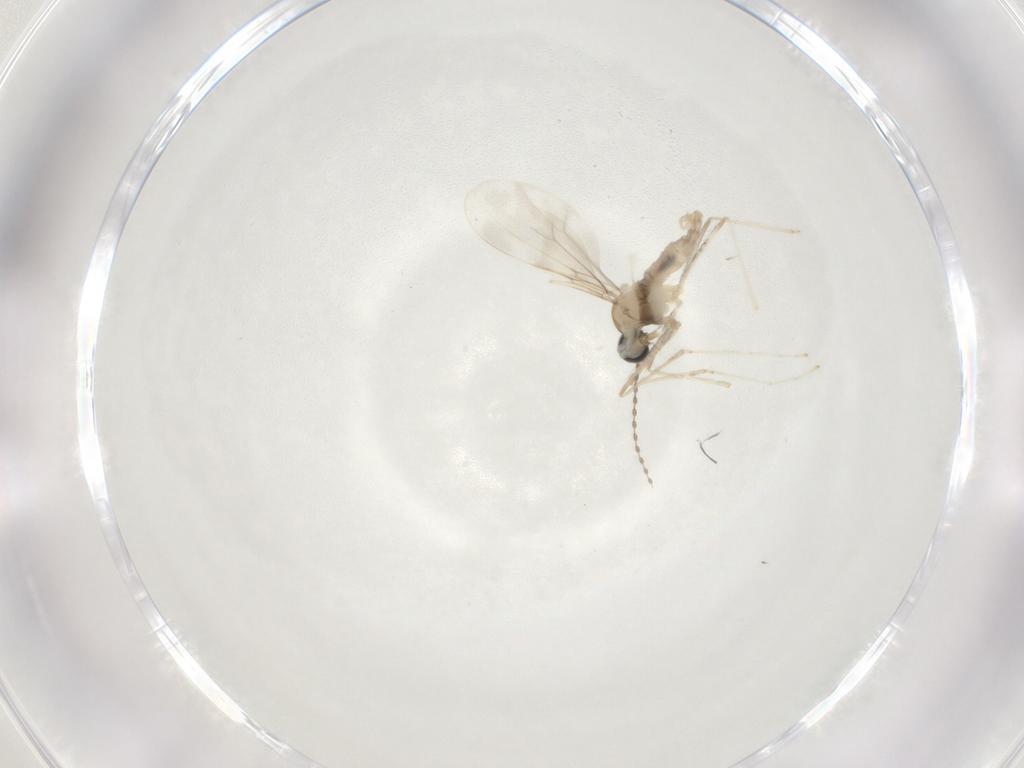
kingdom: Animalia
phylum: Arthropoda
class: Insecta
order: Diptera
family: Cecidomyiidae
